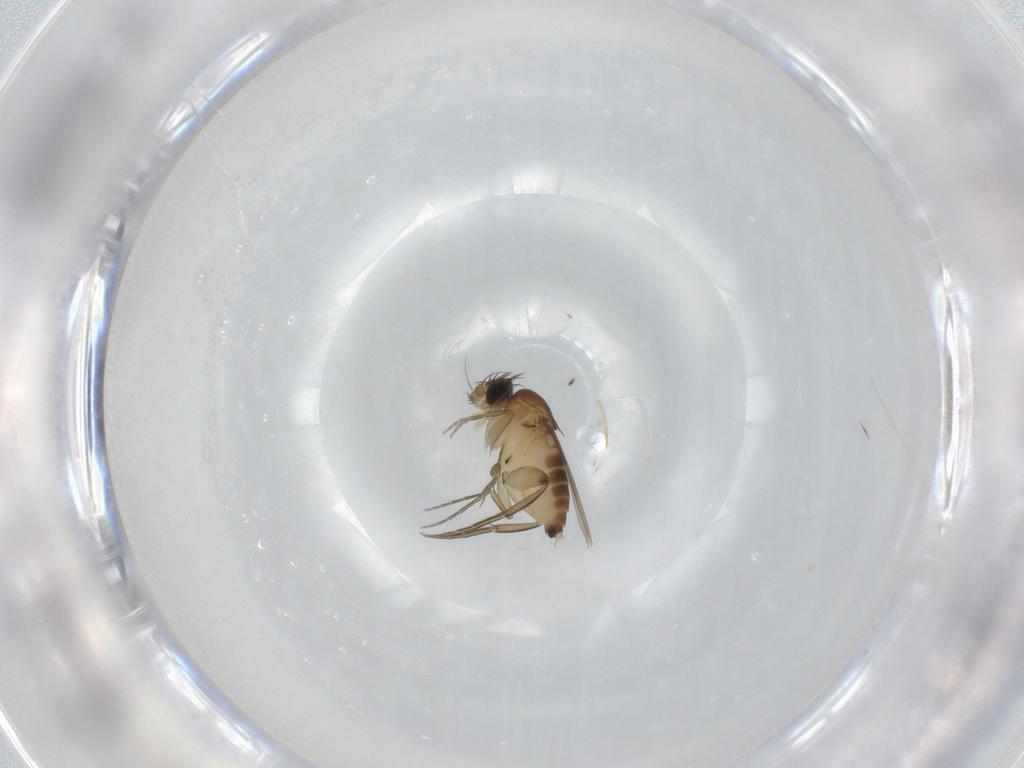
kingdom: Animalia
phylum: Arthropoda
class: Insecta
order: Diptera
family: Phoridae
